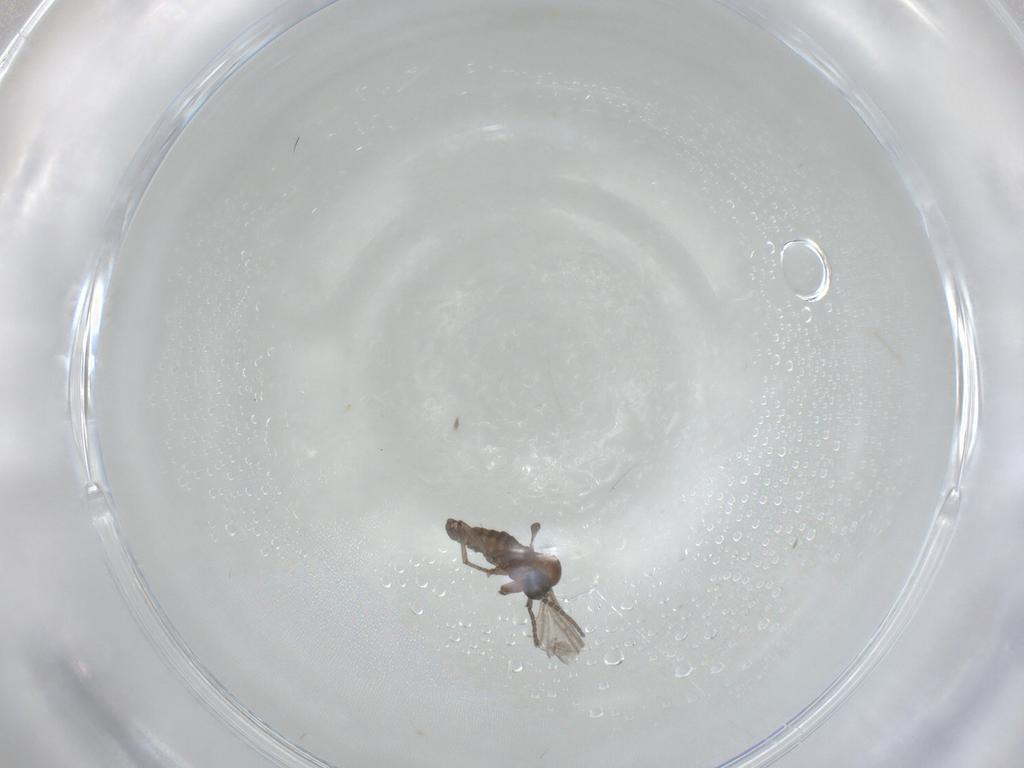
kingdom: Animalia
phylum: Arthropoda
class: Insecta
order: Diptera
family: Sciaridae
